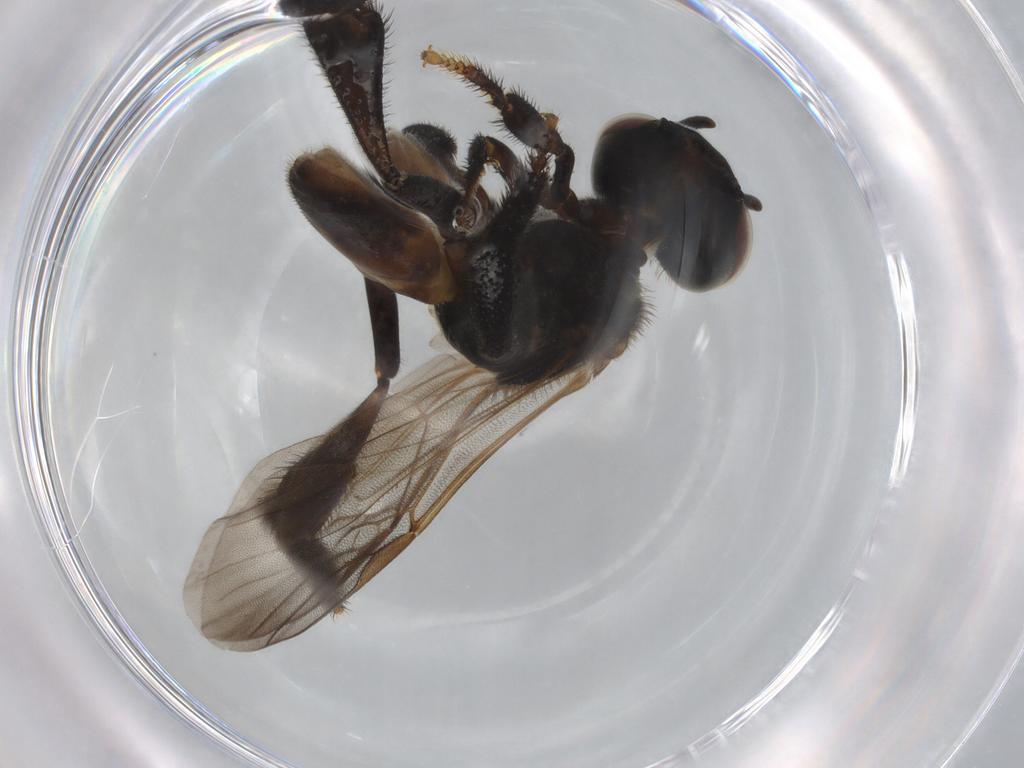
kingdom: Animalia
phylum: Arthropoda
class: Insecta
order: Hymenoptera
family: Apidae
